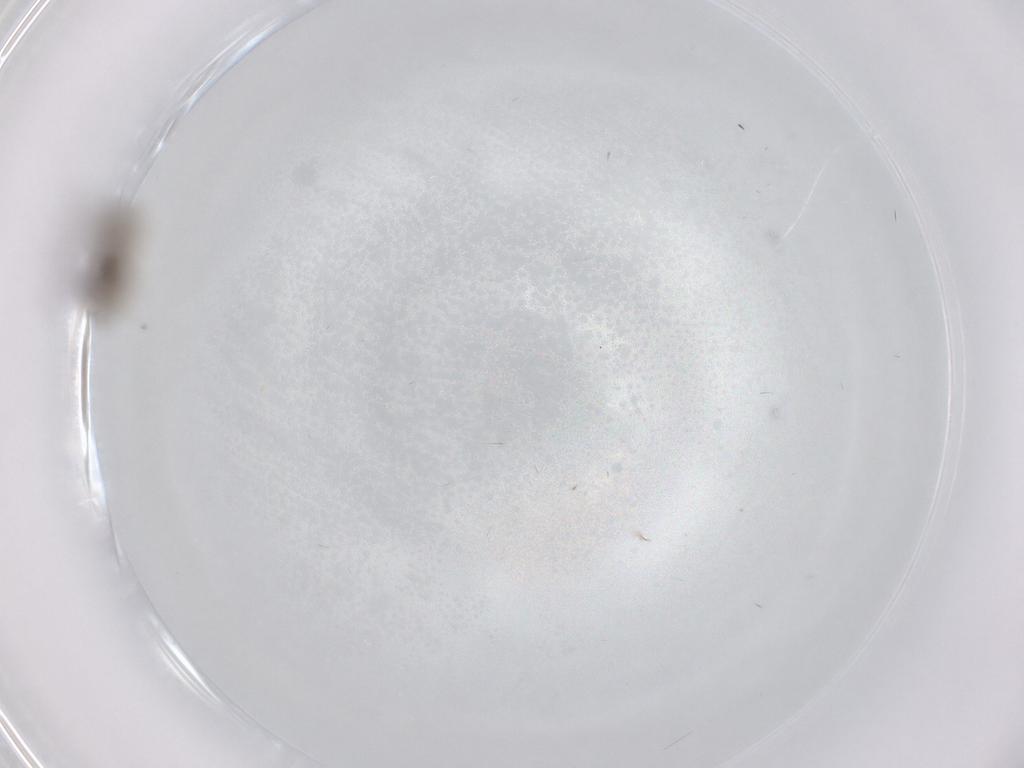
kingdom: Animalia
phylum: Arthropoda
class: Insecta
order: Diptera
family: Psychodidae
